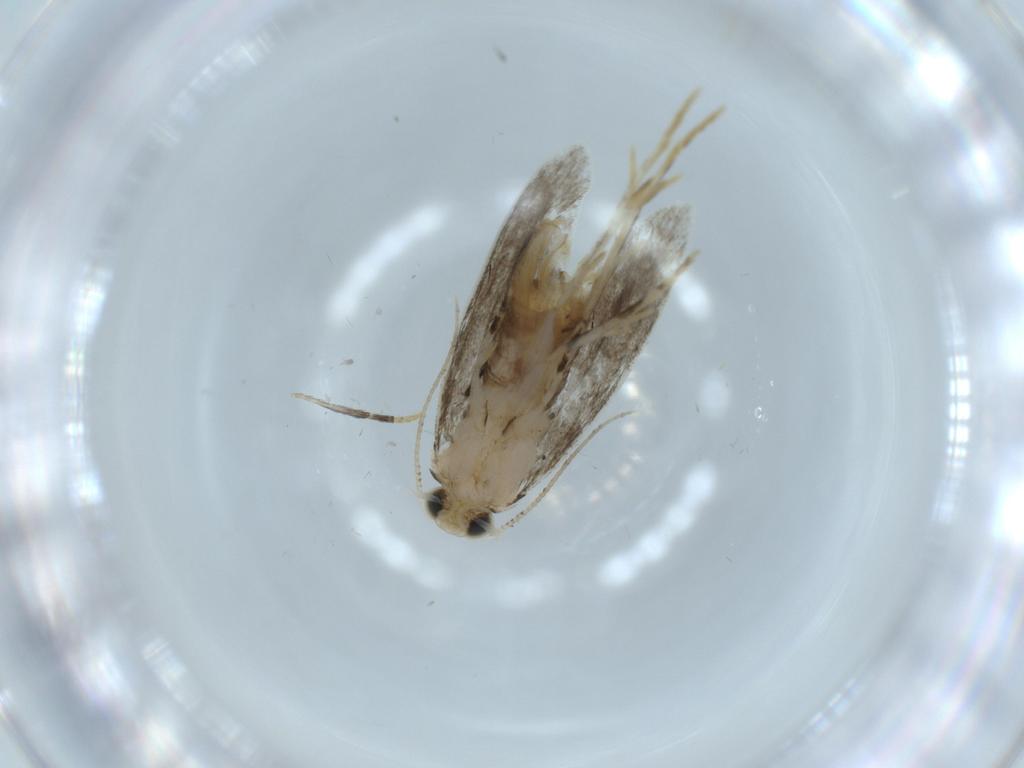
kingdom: Animalia
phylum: Arthropoda
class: Insecta
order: Lepidoptera
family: Tineidae
